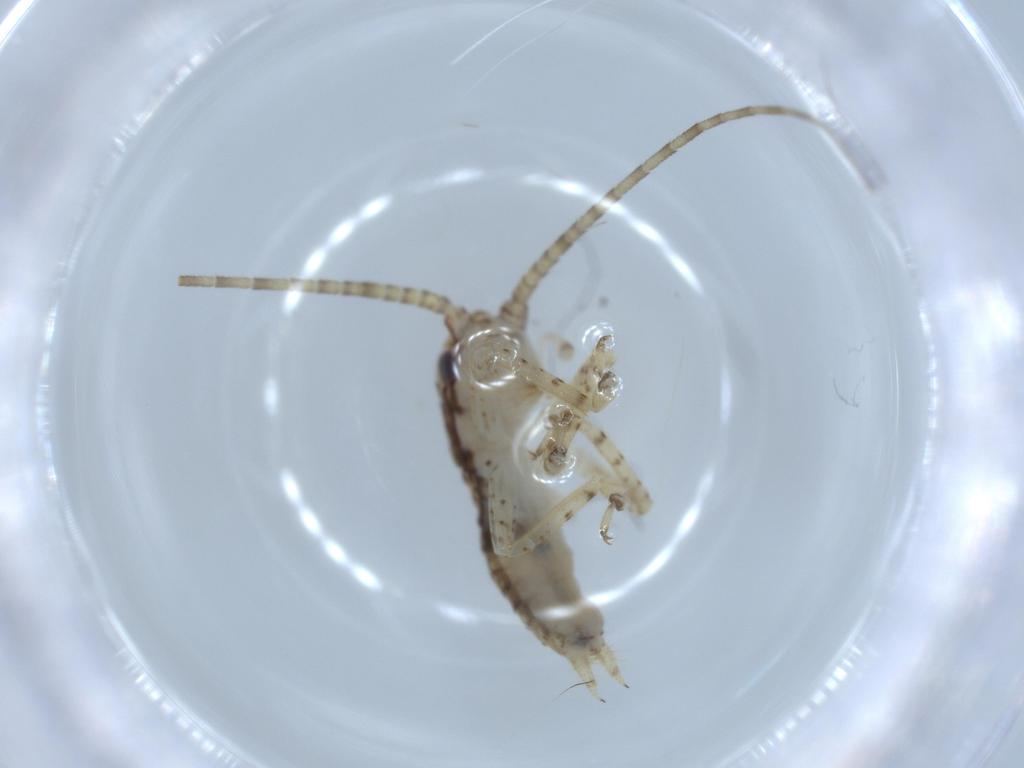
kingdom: Animalia
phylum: Arthropoda
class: Insecta
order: Orthoptera
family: Gryllidae
